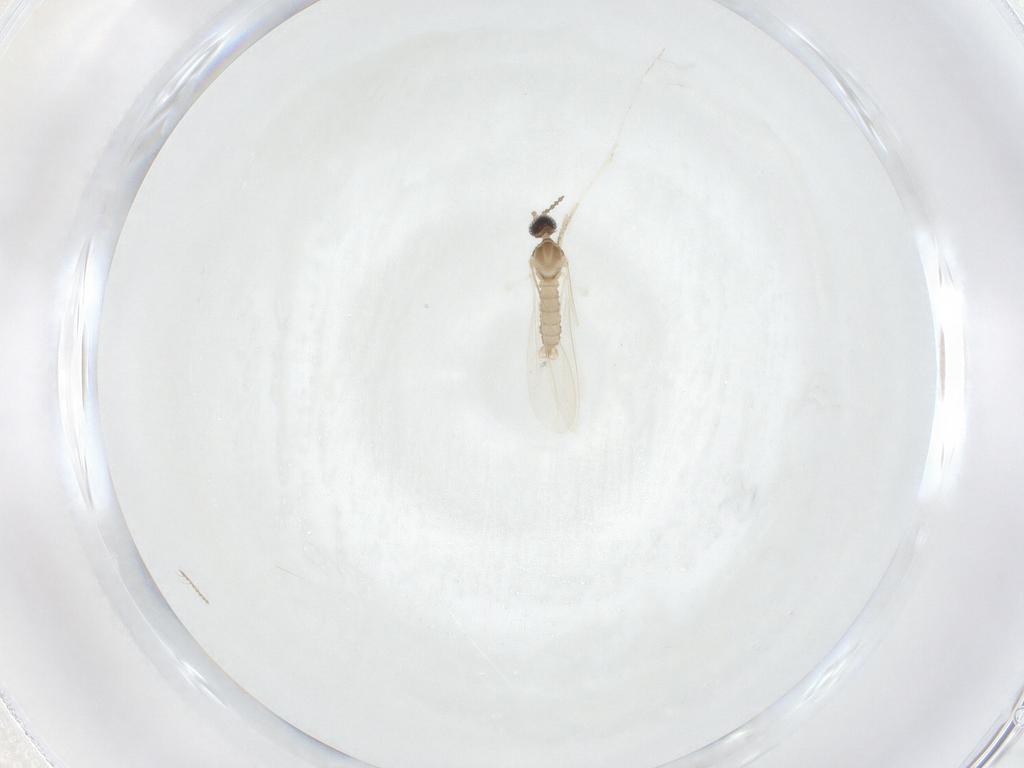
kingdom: Animalia
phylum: Arthropoda
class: Insecta
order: Diptera
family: Cecidomyiidae
